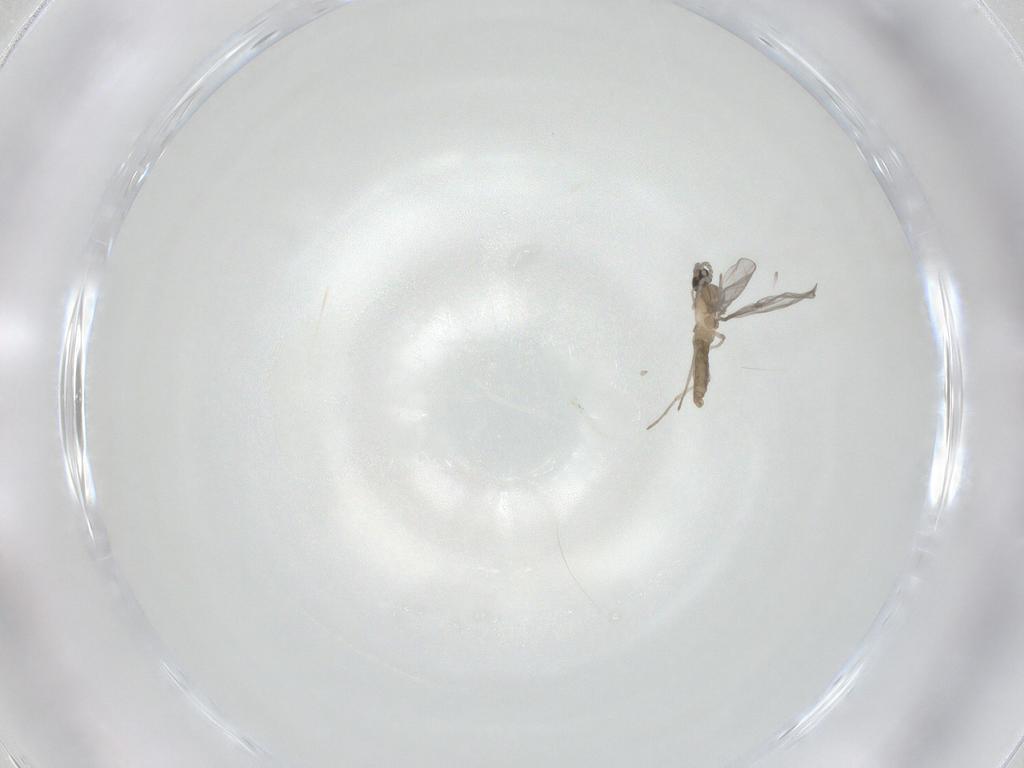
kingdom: Animalia
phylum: Arthropoda
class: Insecta
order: Diptera
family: Cecidomyiidae
